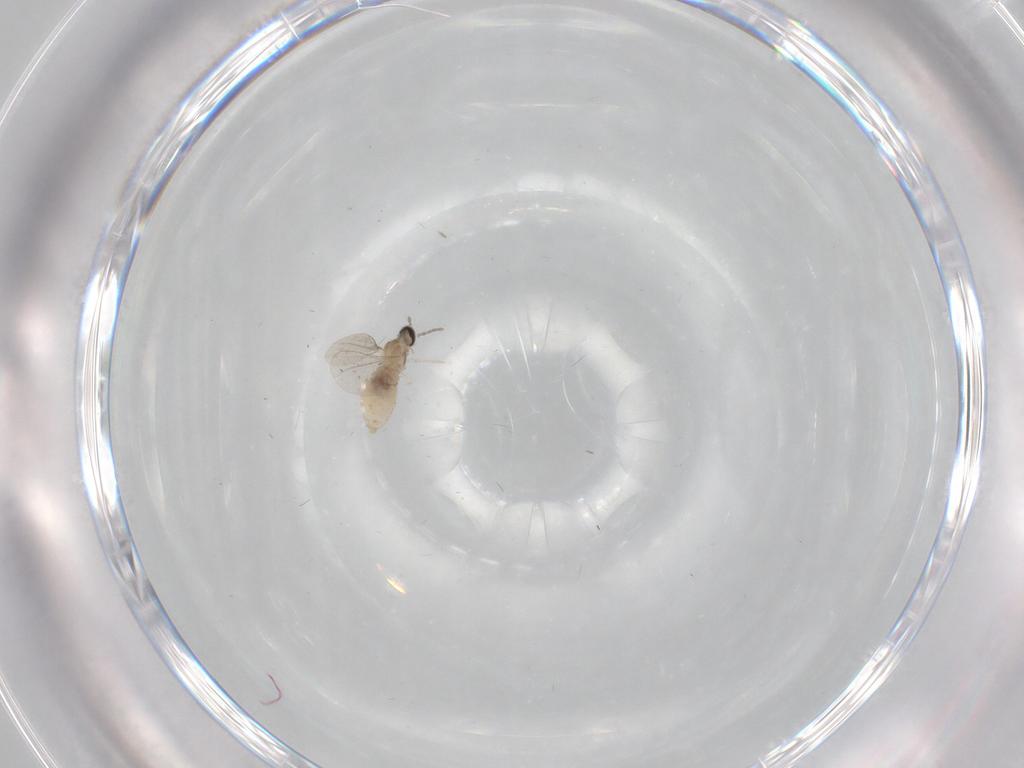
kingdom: Animalia
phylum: Arthropoda
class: Insecta
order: Diptera
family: Cecidomyiidae
